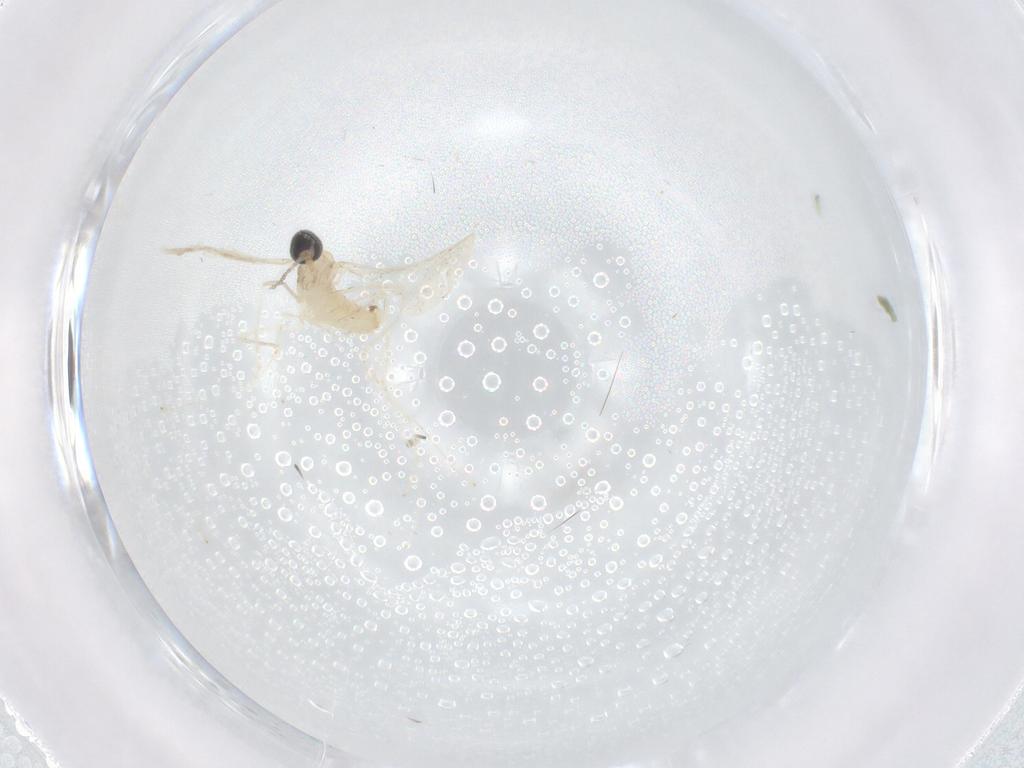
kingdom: Animalia
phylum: Arthropoda
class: Insecta
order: Diptera
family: Cecidomyiidae
